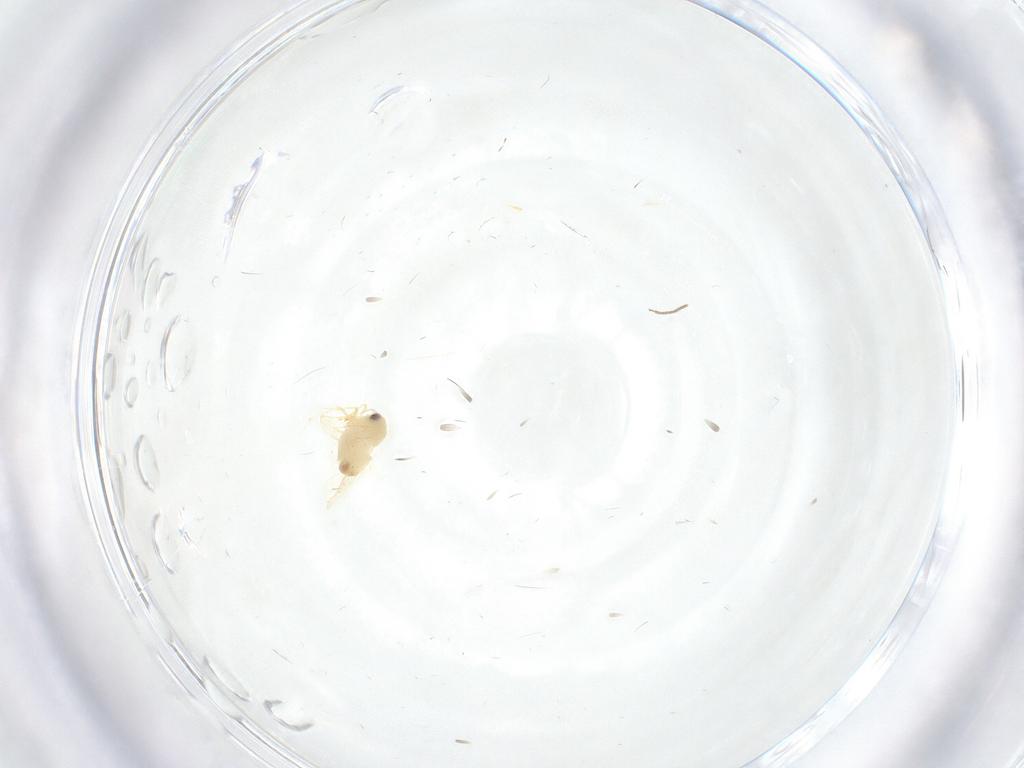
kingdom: Animalia
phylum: Arthropoda
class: Insecta
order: Hemiptera
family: Aleyrodidae
